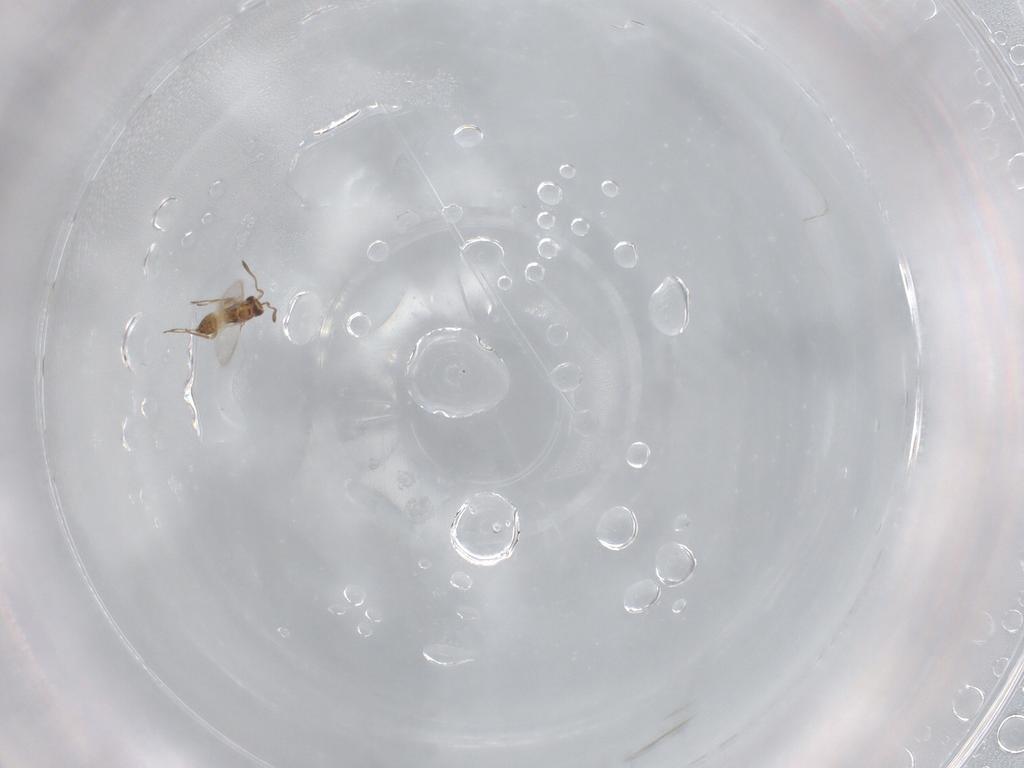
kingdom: Animalia
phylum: Arthropoda
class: Insecta
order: Hymenoptera
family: Mymaridae
